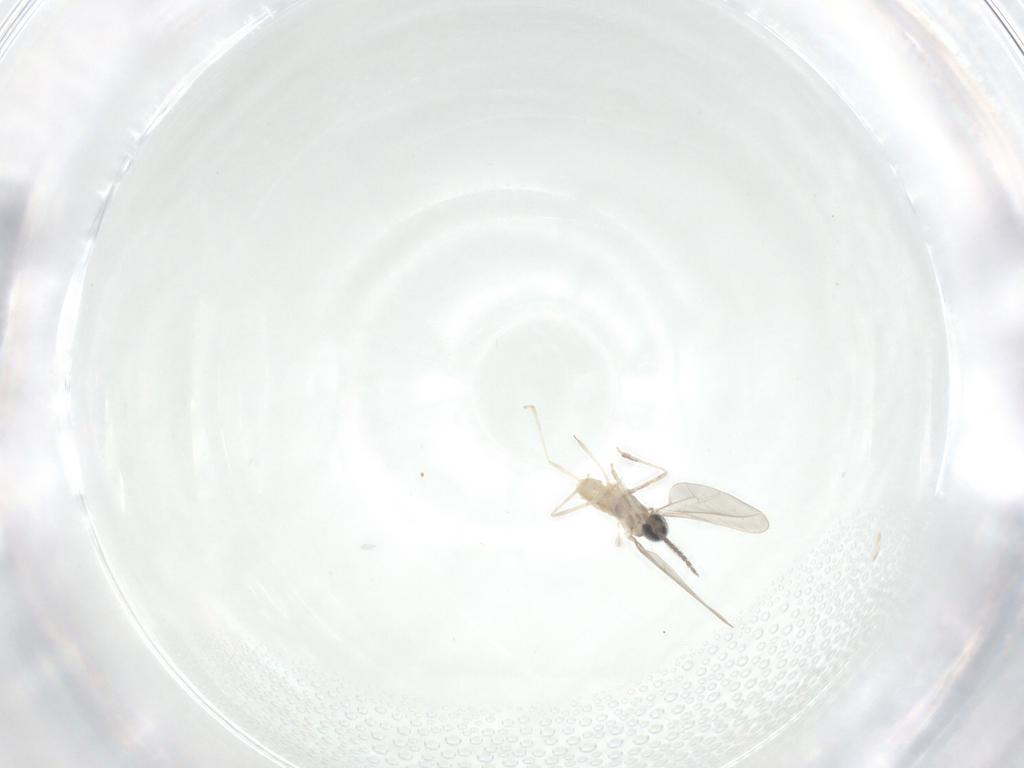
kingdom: Animalia
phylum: Arthropoda
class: Insecta
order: Diptera
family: Cecidomyiidae
